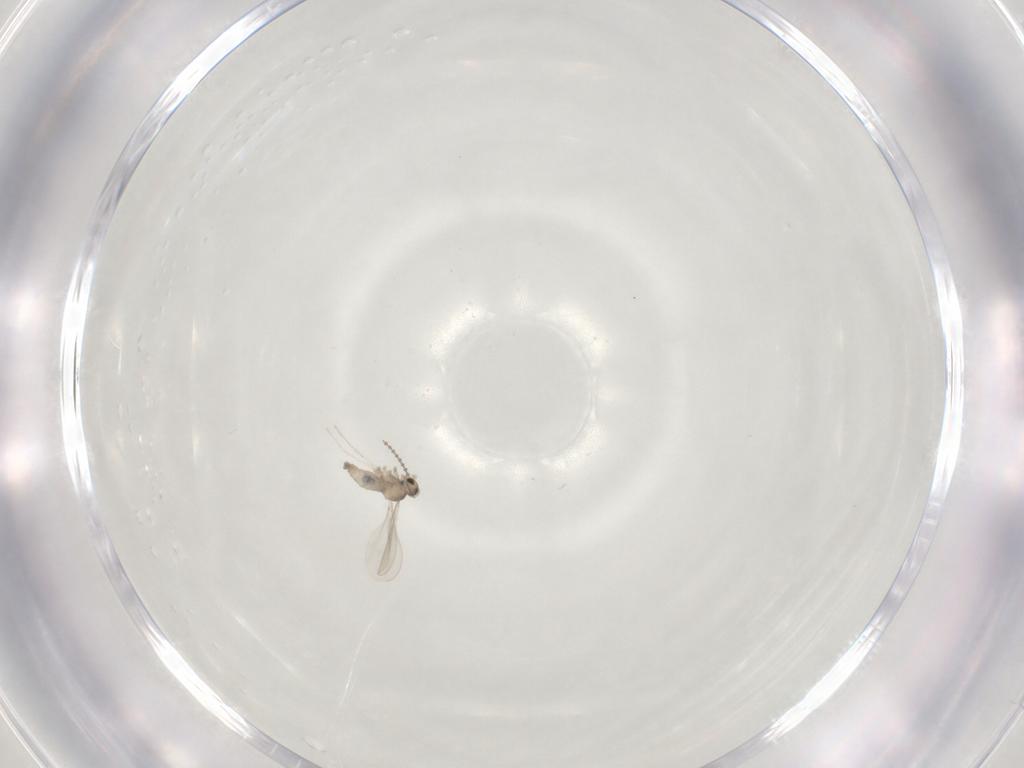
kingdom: Animalia
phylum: Arthropoda
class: Insecta
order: Diptera
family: Cecidomyiidae
